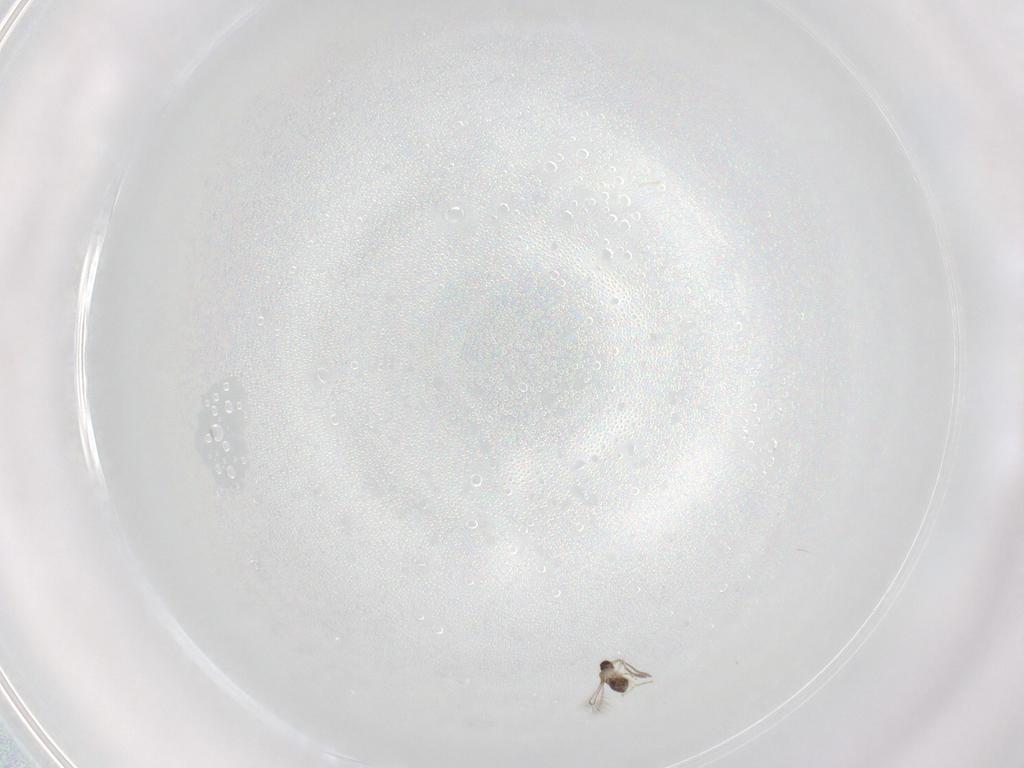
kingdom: Animalia
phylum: Arthropoda
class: Insecta
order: Hymenoptera
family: Mymaridae
